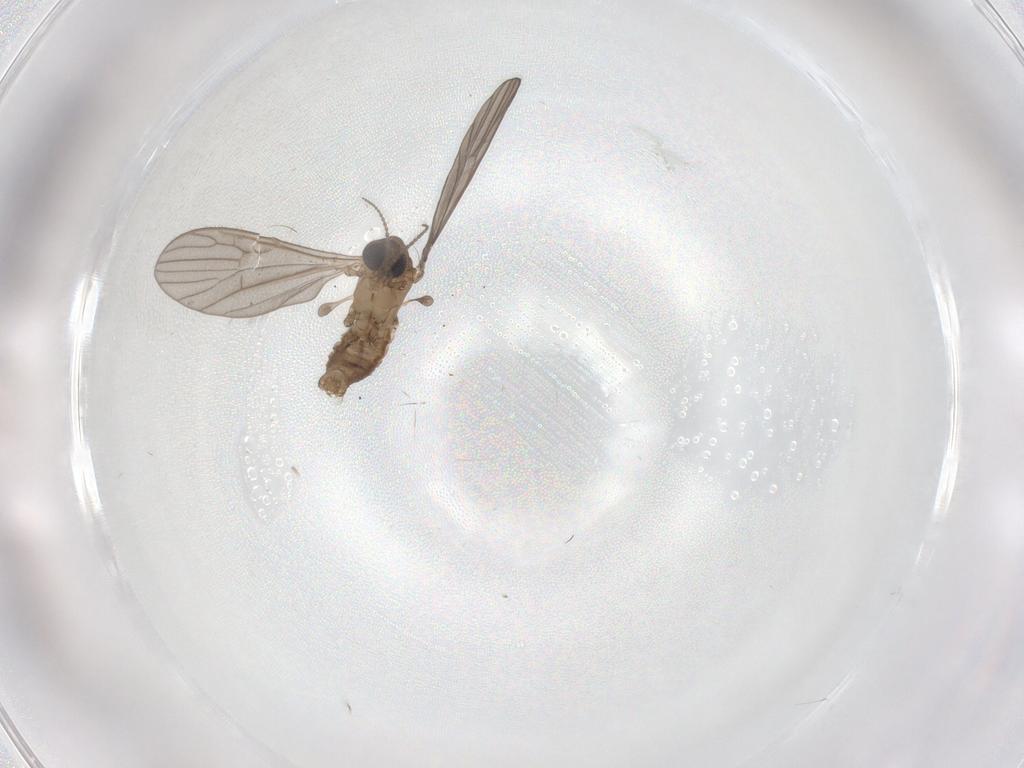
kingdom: Animalia
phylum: Arthropoda
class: Insecta
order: Diptera
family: Limoniidae
